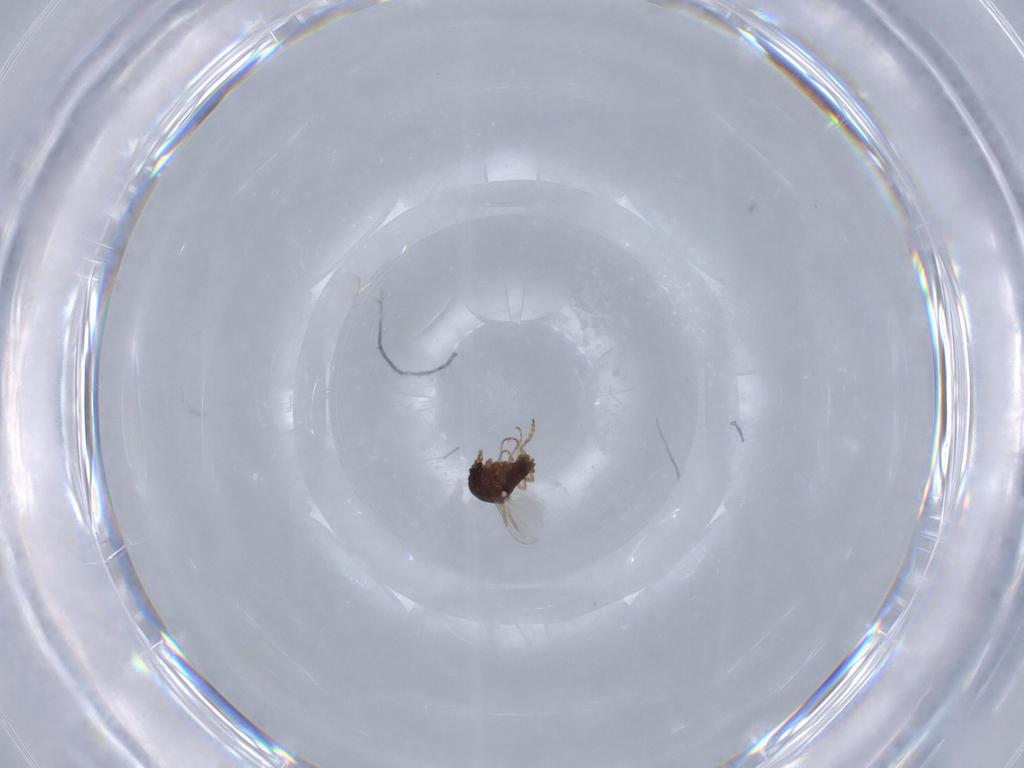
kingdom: Animalia
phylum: Arthropoda
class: Insecta
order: Diptera
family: Ceratopogonidae
